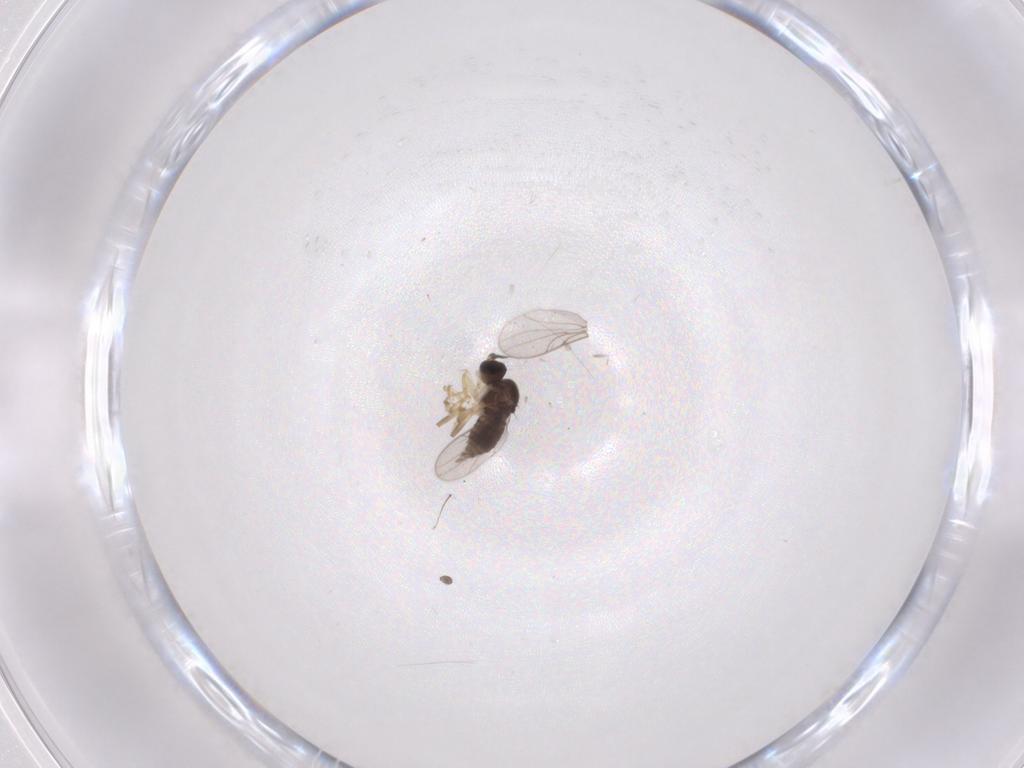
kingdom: Animalia
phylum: Arthropoda
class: Insecta
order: Diptera
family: Hybotidae
